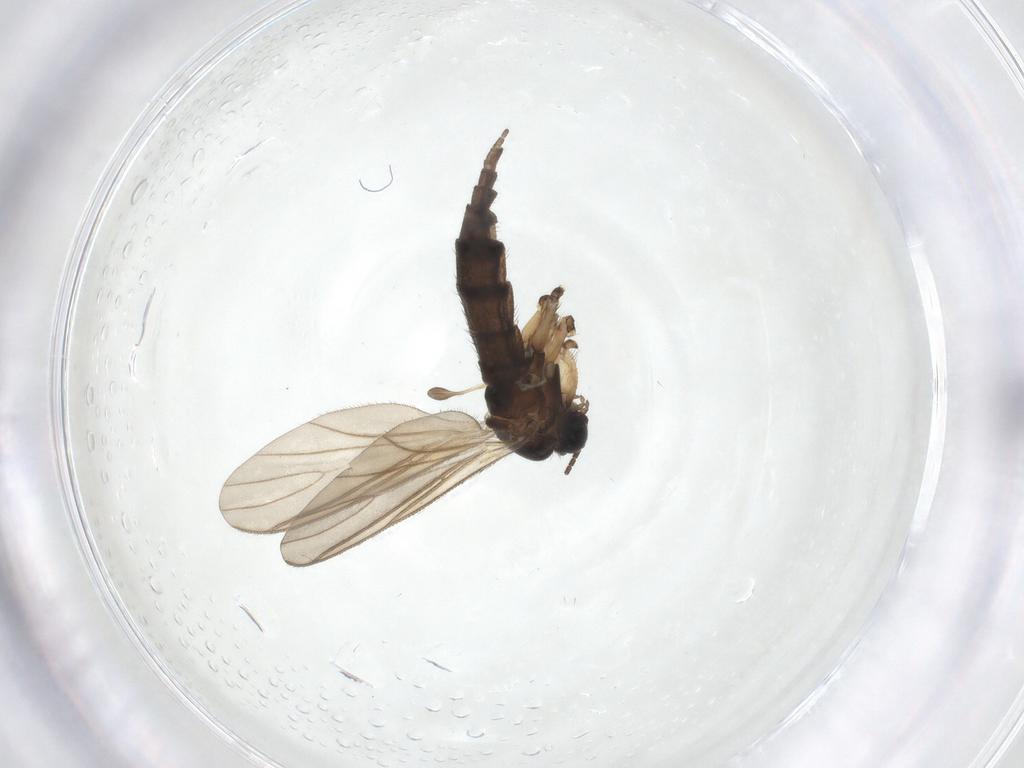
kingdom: Animalia
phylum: Arthropoda
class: Insecta
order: Diptera
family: Sciaridae
